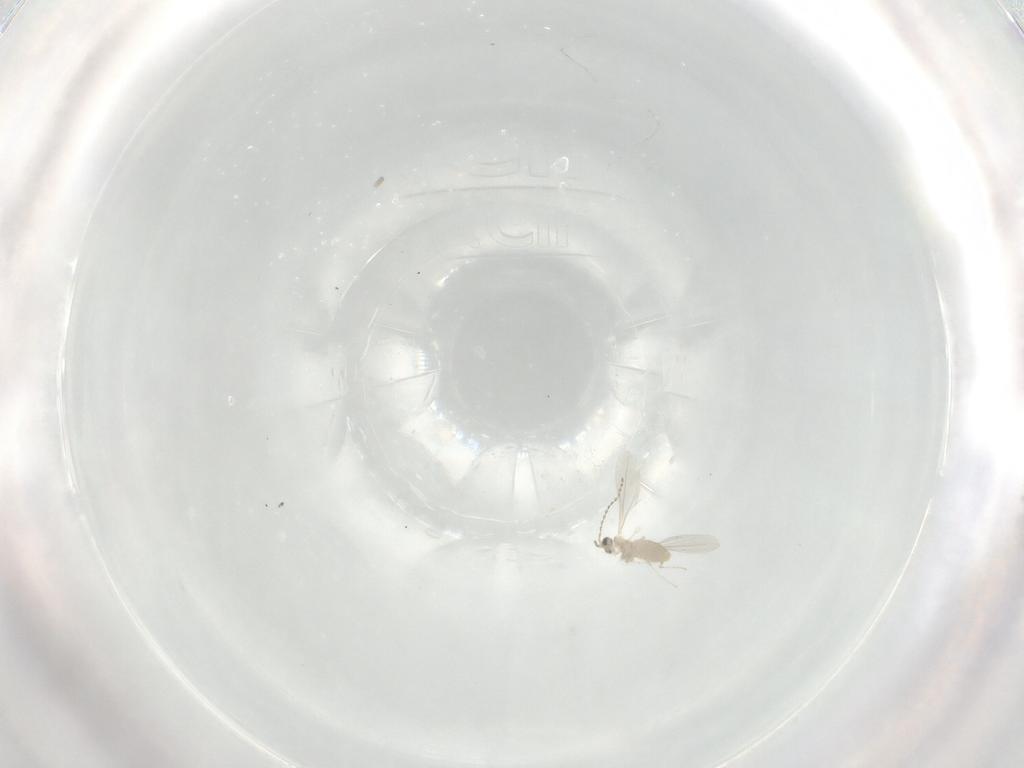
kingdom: Animalia
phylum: Arthropoda
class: Insecta
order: Diptera
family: Cecidomyiidae
